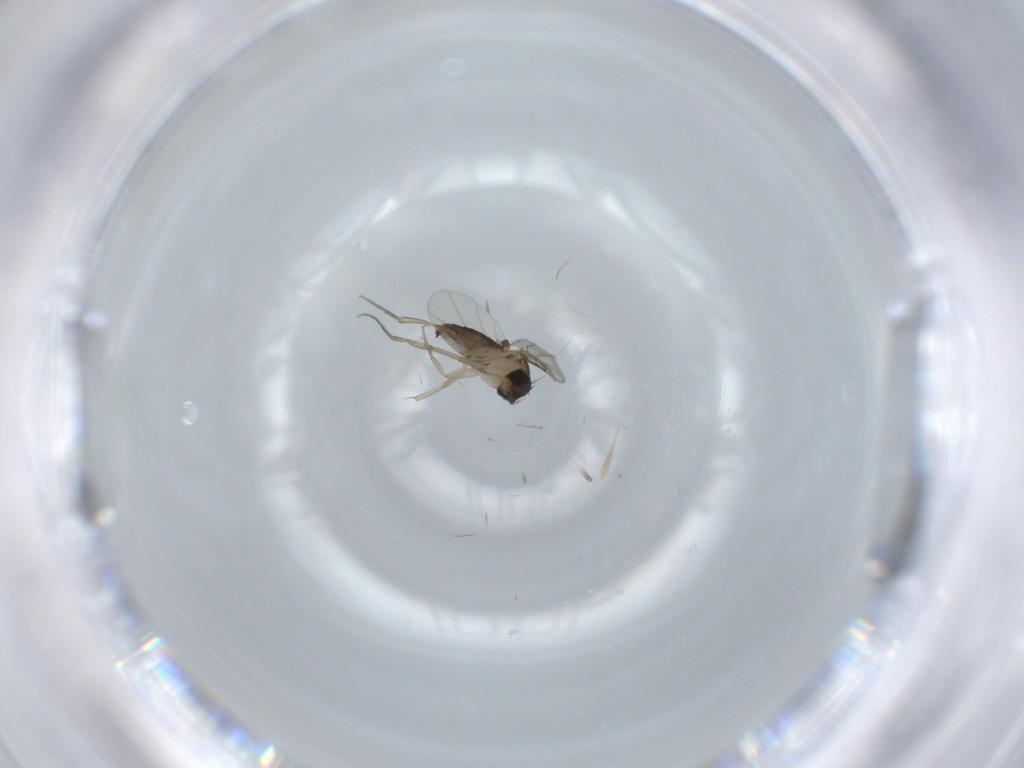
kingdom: Animalia
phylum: Arthropoda
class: Insecta
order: Diptera
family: Phoridae
